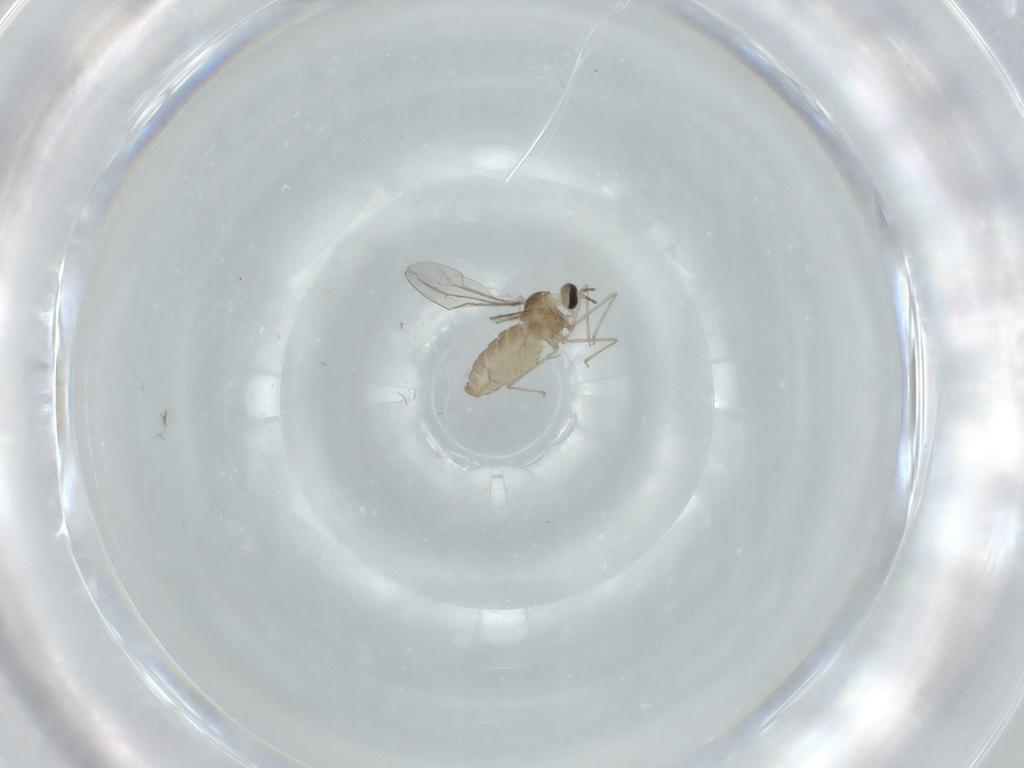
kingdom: Animalia
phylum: Arthropoda
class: Insecta
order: Diptera
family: Cecidomyiidae
